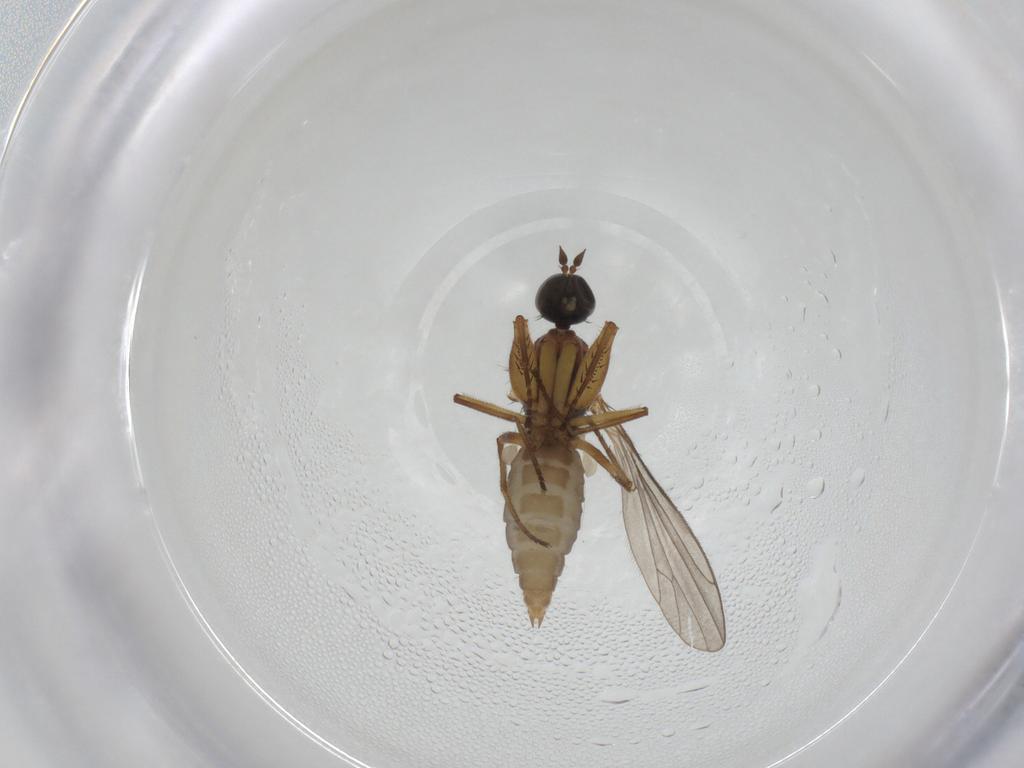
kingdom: Animalia
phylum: Arthropoda
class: Insecta
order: Diptera
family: Empididae
